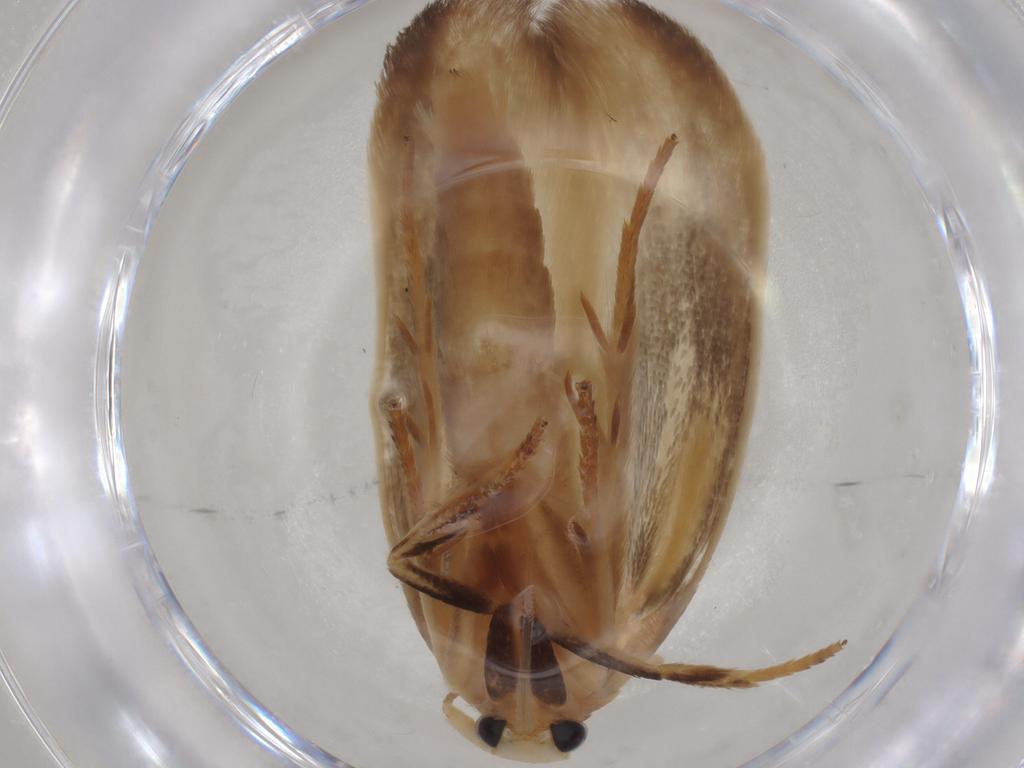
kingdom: Animalia
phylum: Arthropoda
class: Insecta
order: Lepidoptera
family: Geometridae
